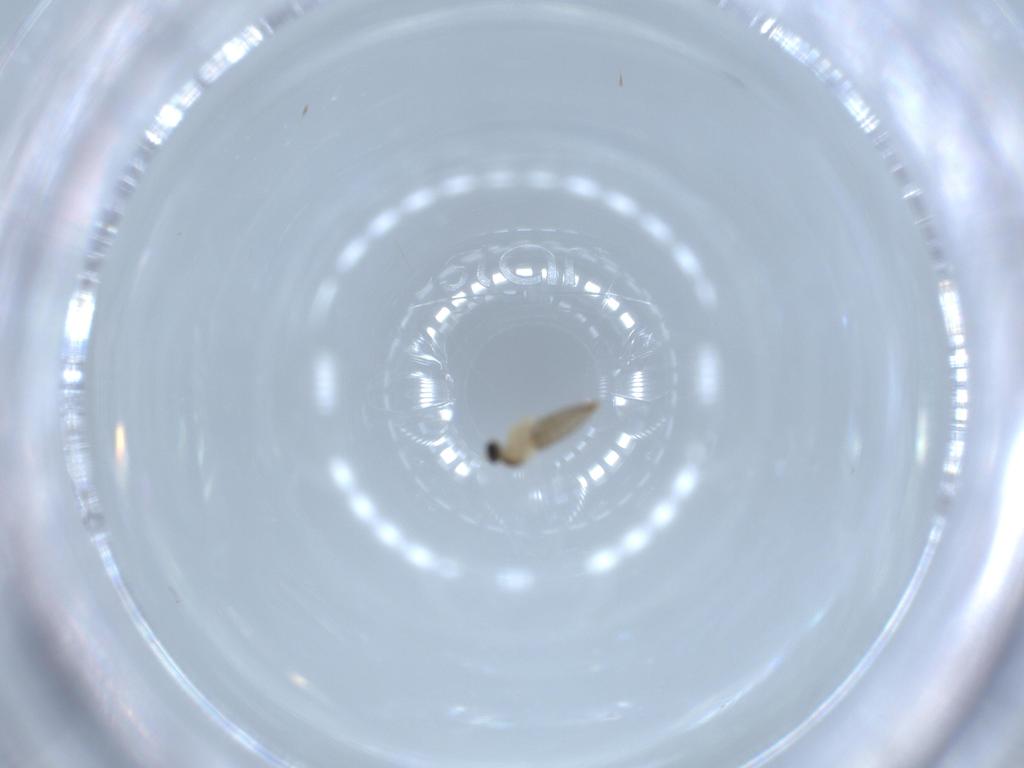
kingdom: Animalia
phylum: Arthropoda
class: Insecta
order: Diptera
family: Cecidomyiidae
